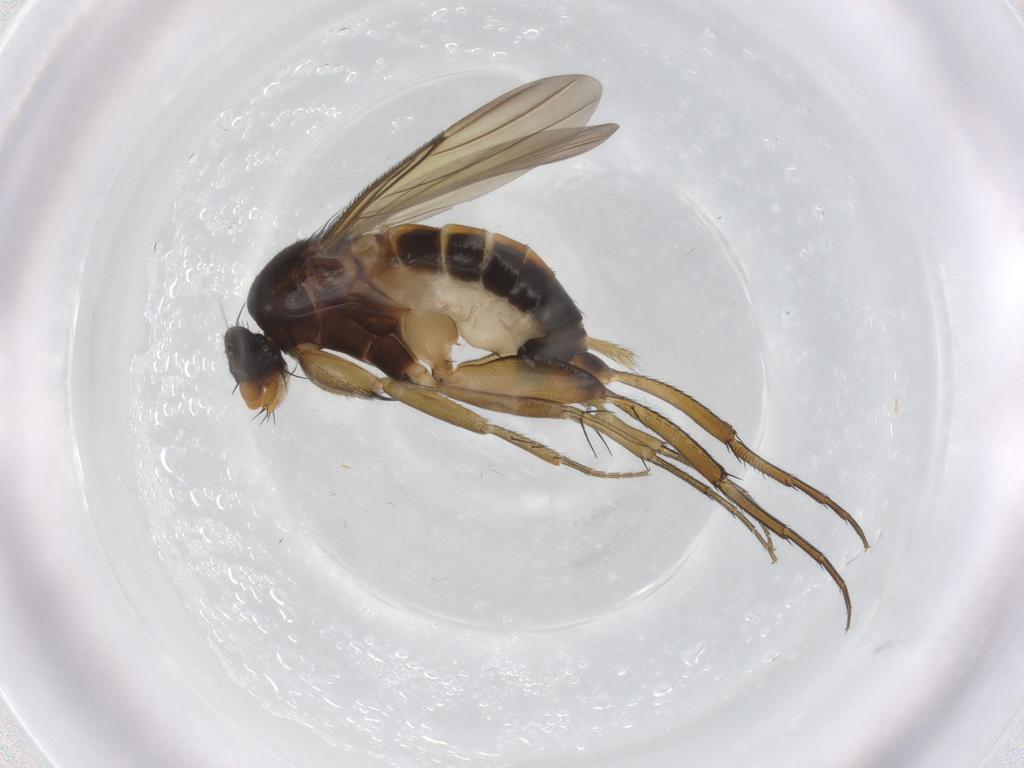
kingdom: Animalia
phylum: Arthropoda
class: Insecta
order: Diptera
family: Phoridae
